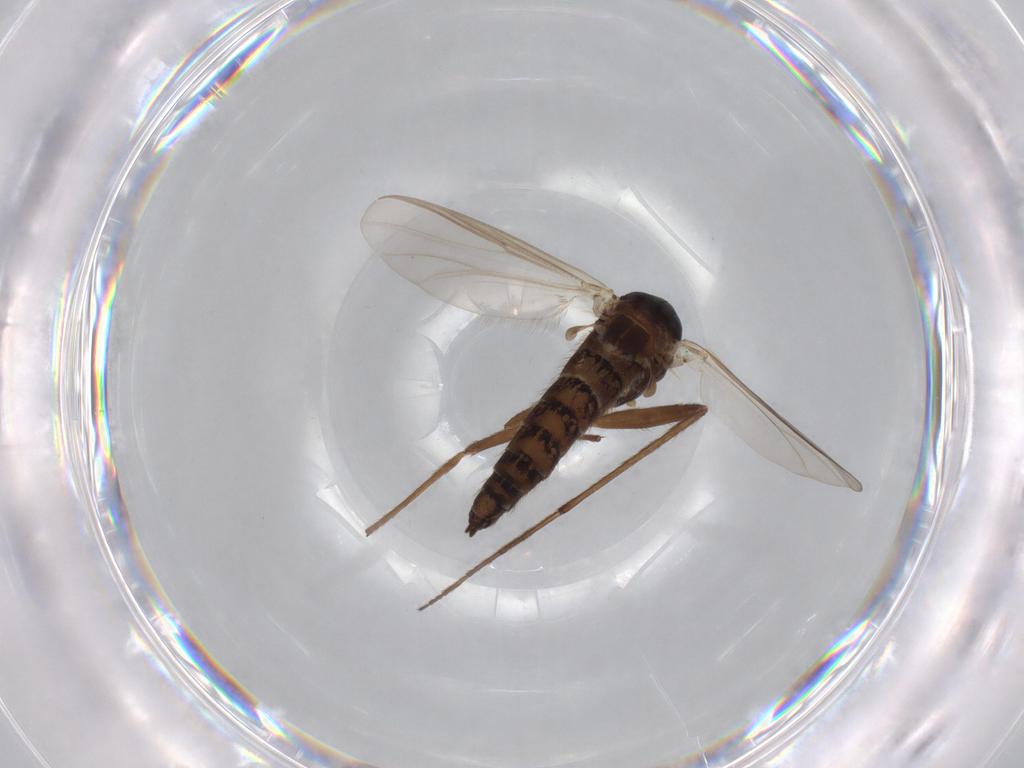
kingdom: Animalia
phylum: Arthropoda
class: Insecta
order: Diptera
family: Chironomidae
